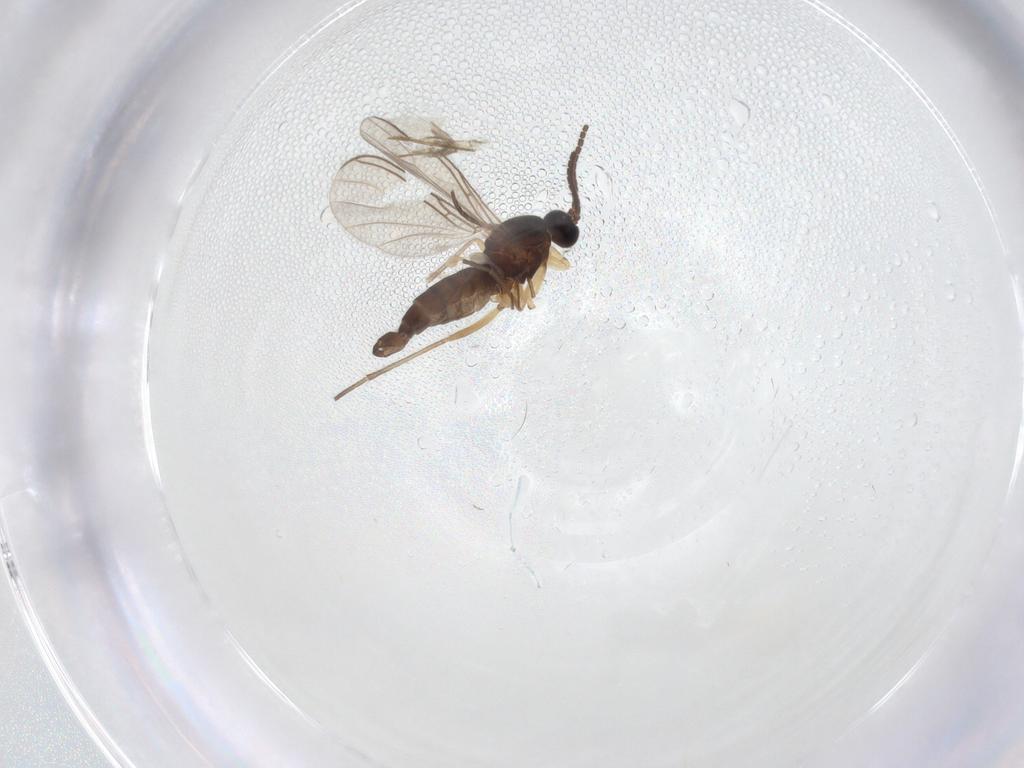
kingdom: Animalia
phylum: Arthropoda
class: Insecta
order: Diptera
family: Sciaridae
